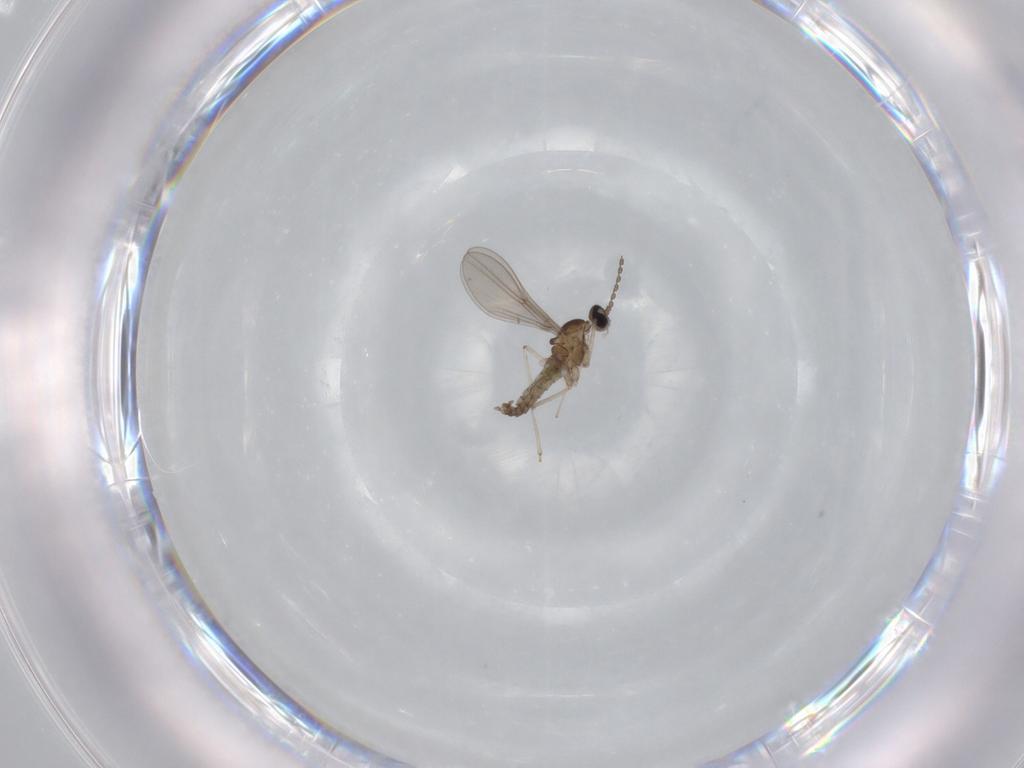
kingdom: Animalia
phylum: Arthropoda
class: Insecta
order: Diptera
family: Cecidomyiidae
